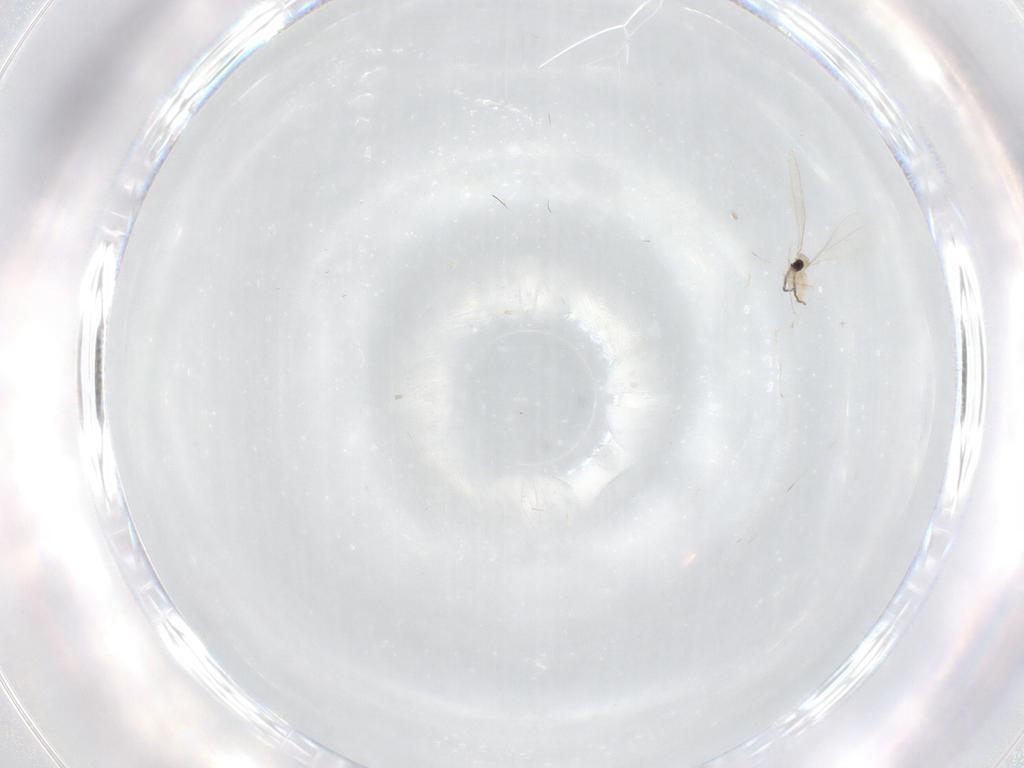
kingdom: Animalia
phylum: Arthropoda
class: Insecta
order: Diptera
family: Cecidomyiidae
